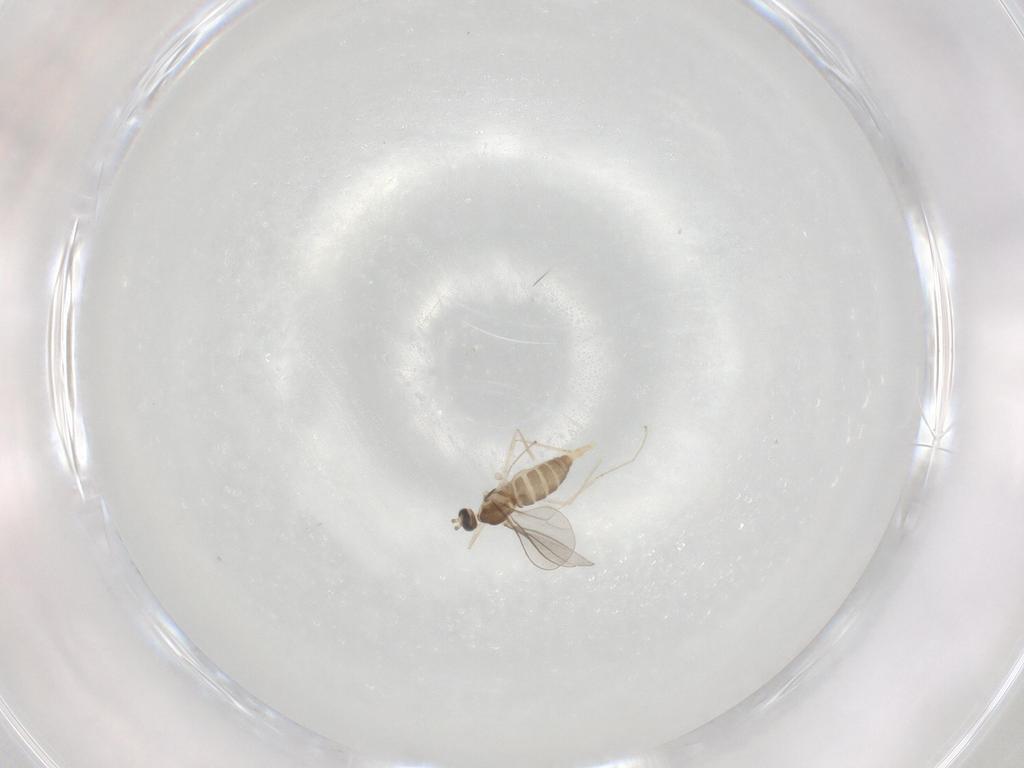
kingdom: Animalia
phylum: Arthropoda
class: Insecta
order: Diptera
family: Cecidomyiidae
